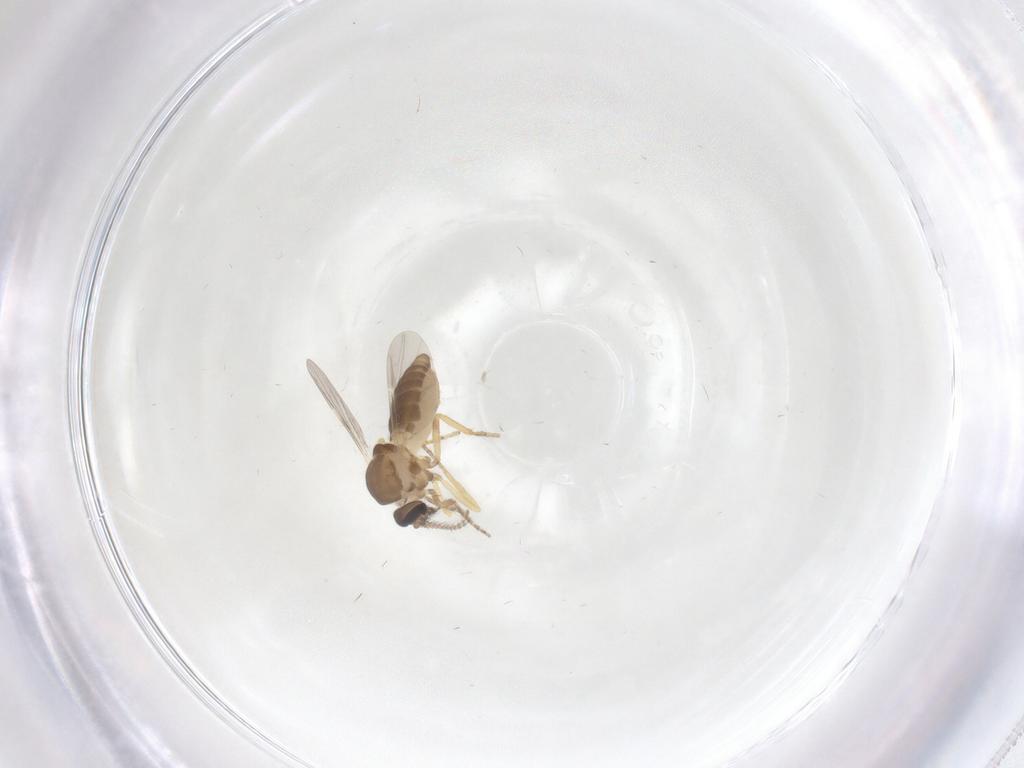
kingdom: Animalia
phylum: Arthropoda
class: Insecta
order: Diptera
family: Ceratopogonidae
